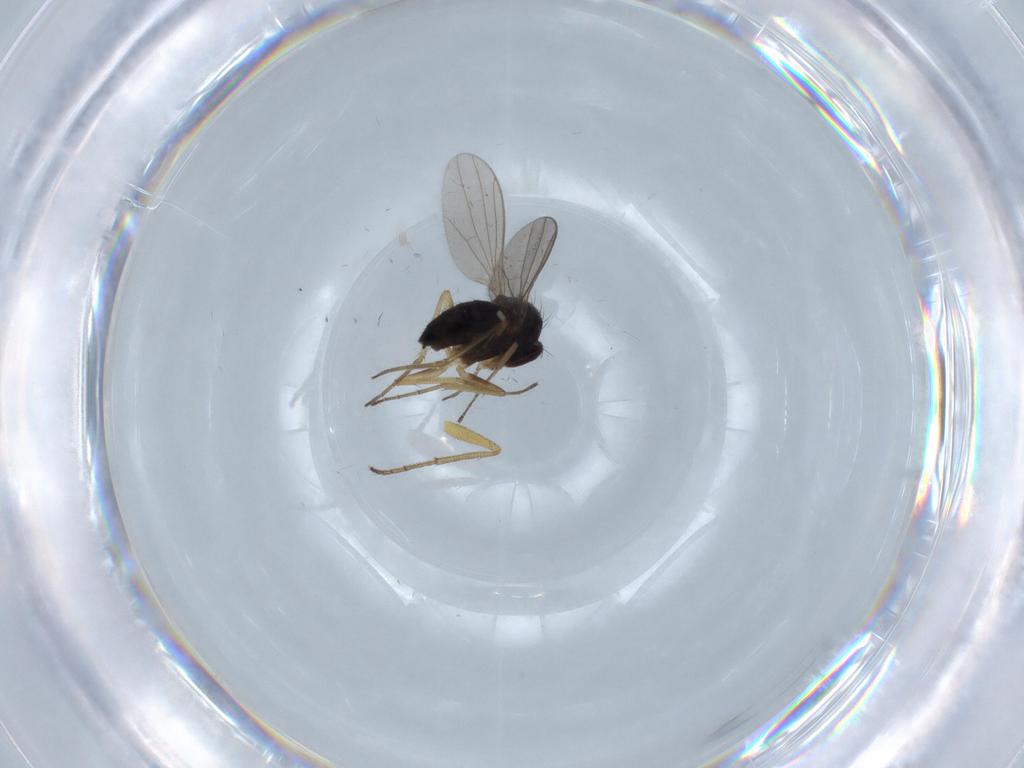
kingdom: Animalia
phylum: Arthropoda
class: Insecta
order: Diptera
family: Dolichopodidae
